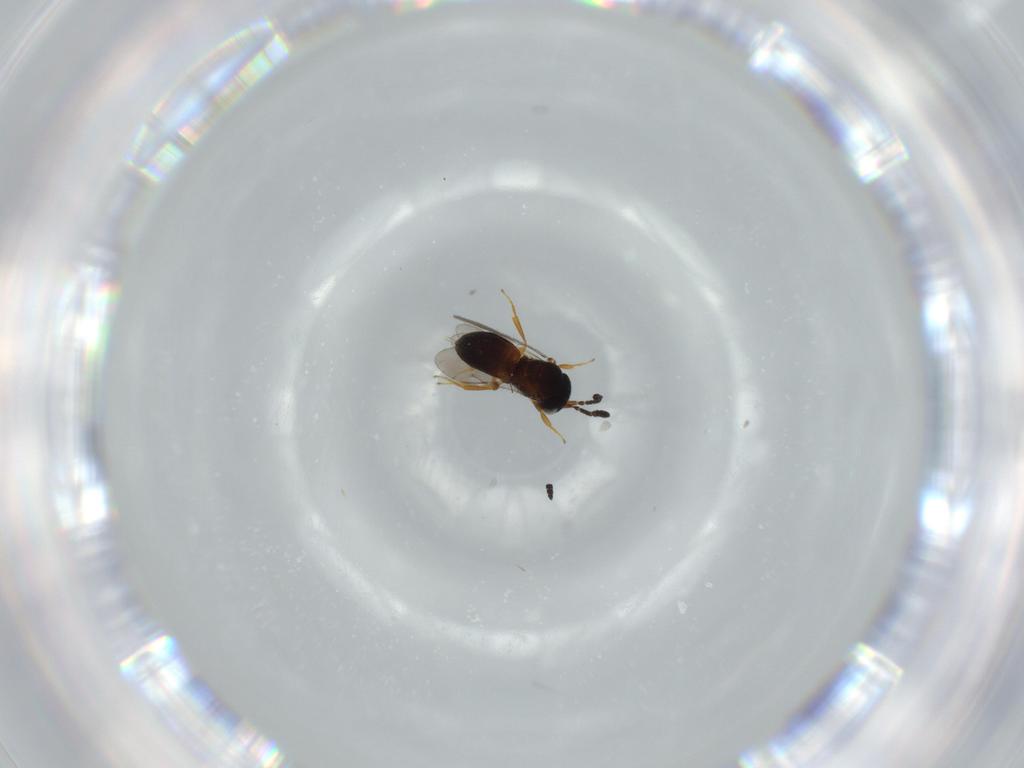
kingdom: Animalia
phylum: Arthropoda
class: Insecta
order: Hymenoptera
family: Scelionidae
